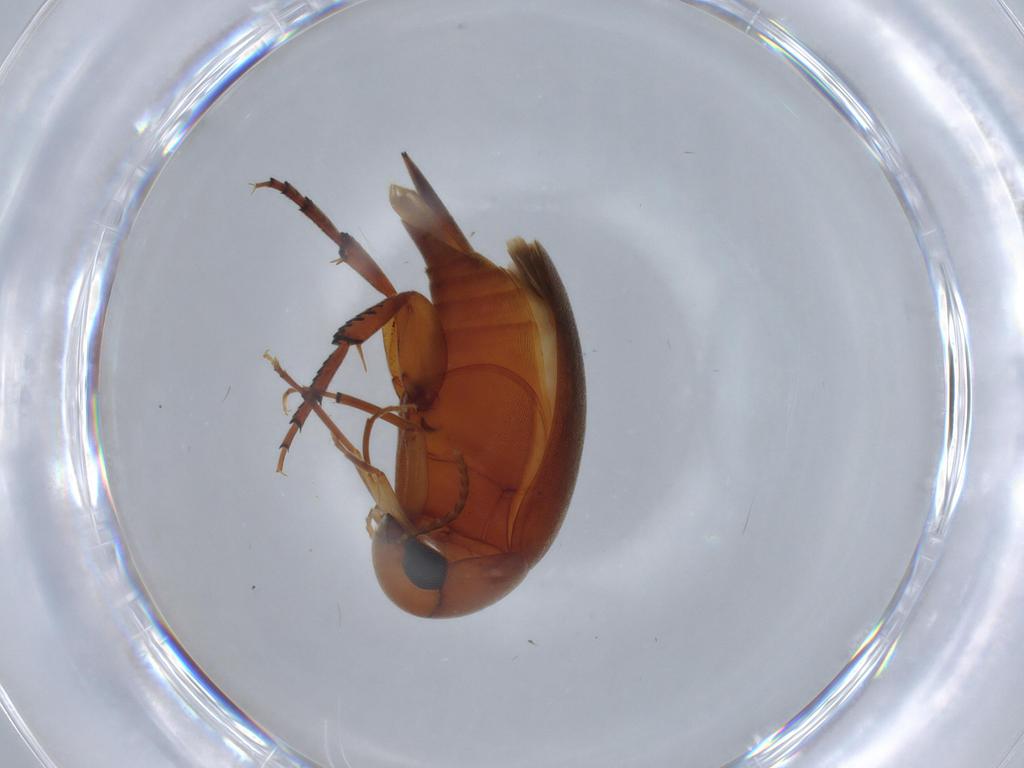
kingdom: Animalia
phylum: Arthropoda
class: Insecta
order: Coleoptera
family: Mordellidae
